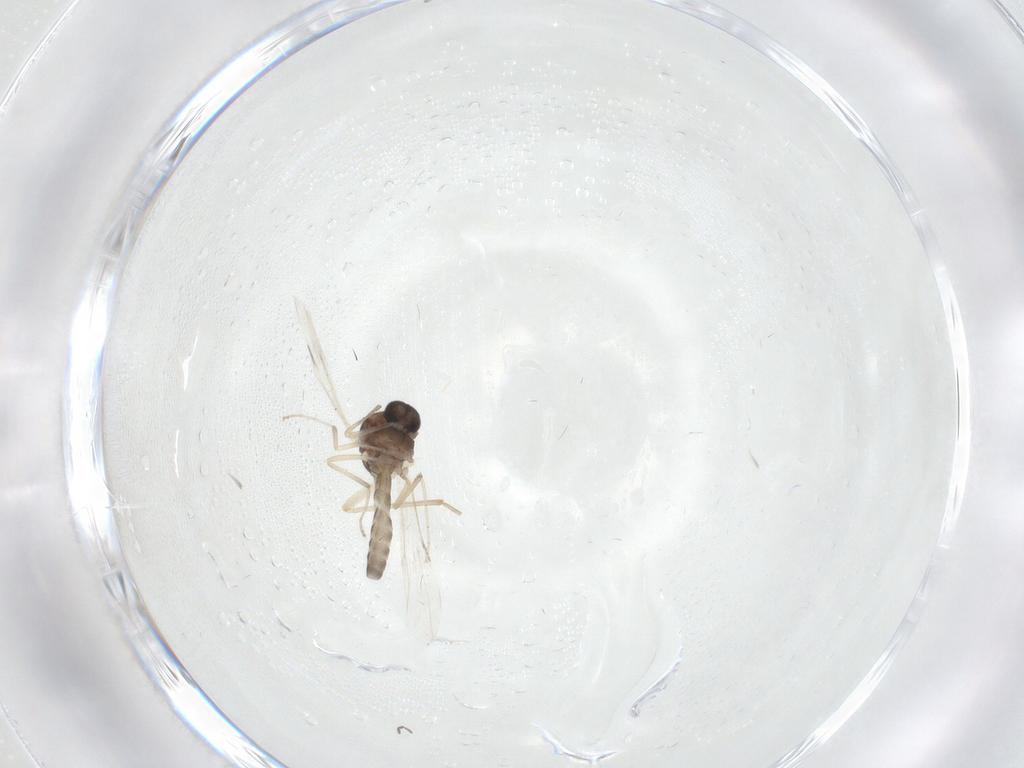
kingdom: Animalia
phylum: Arthropoda
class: Insecta
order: Diptera
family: Ceratopogonidae
